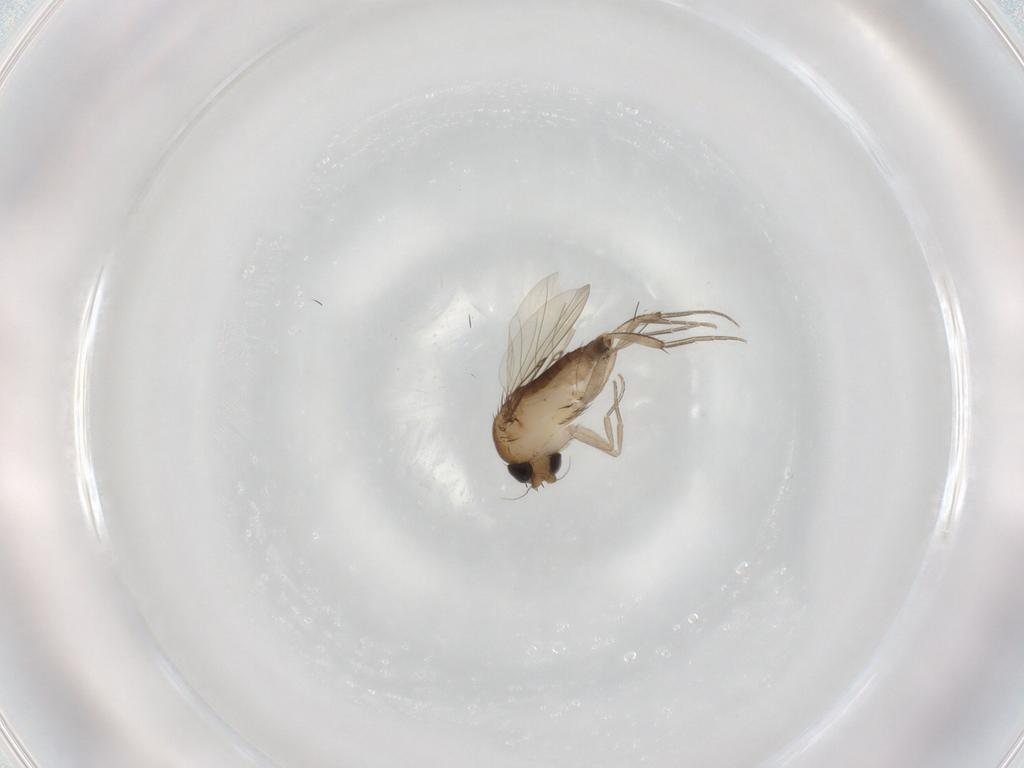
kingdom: Animalia
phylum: Arthropoda
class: Insecta
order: Diptera
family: Phoridae
